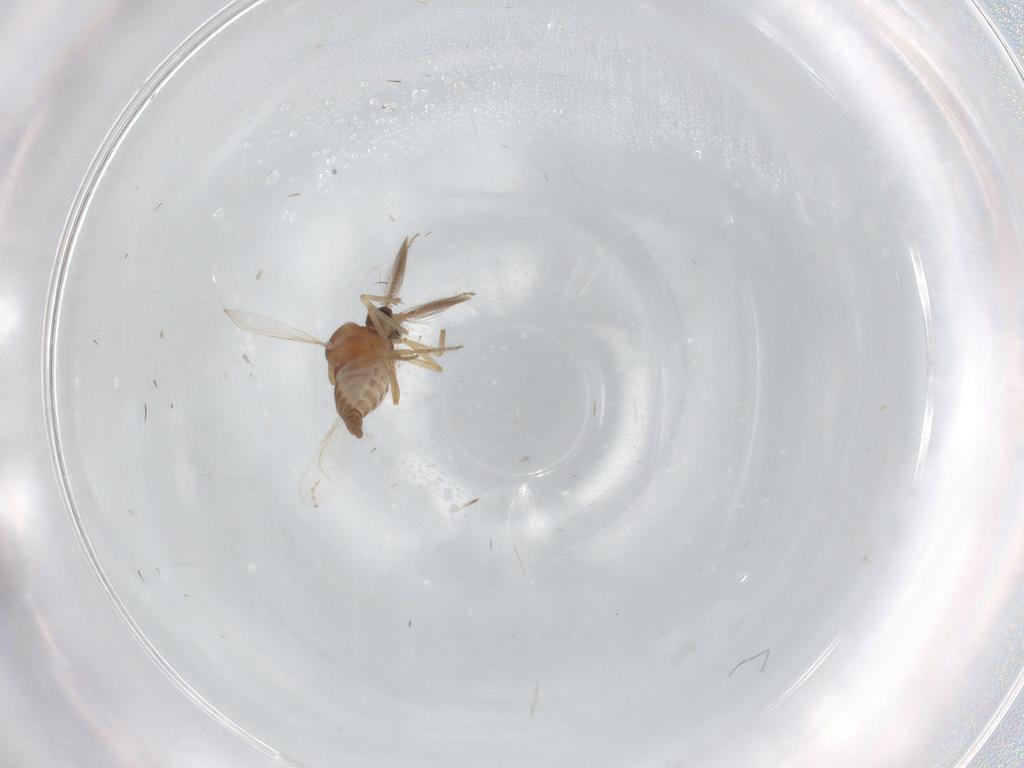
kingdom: Animalia
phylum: Arthropoda
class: Insecta
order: Diptera
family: Ceratopogonidae
